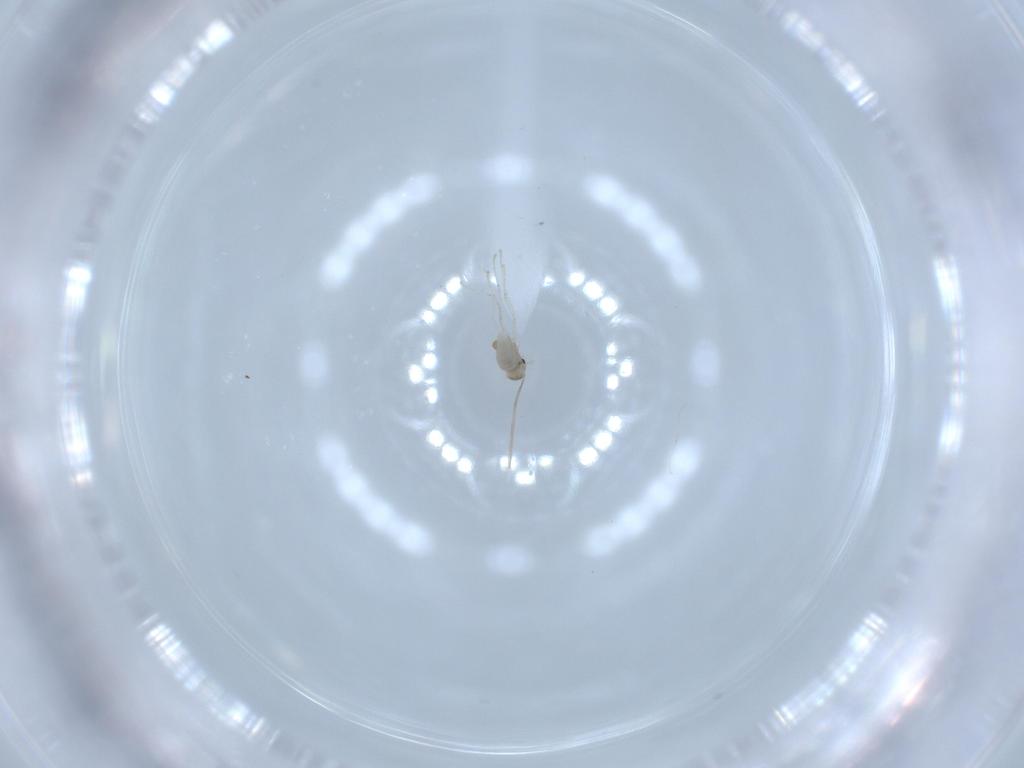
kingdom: Animalia
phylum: Arthropoda
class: Insecta
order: Diptera
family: Cecidomyiidae
